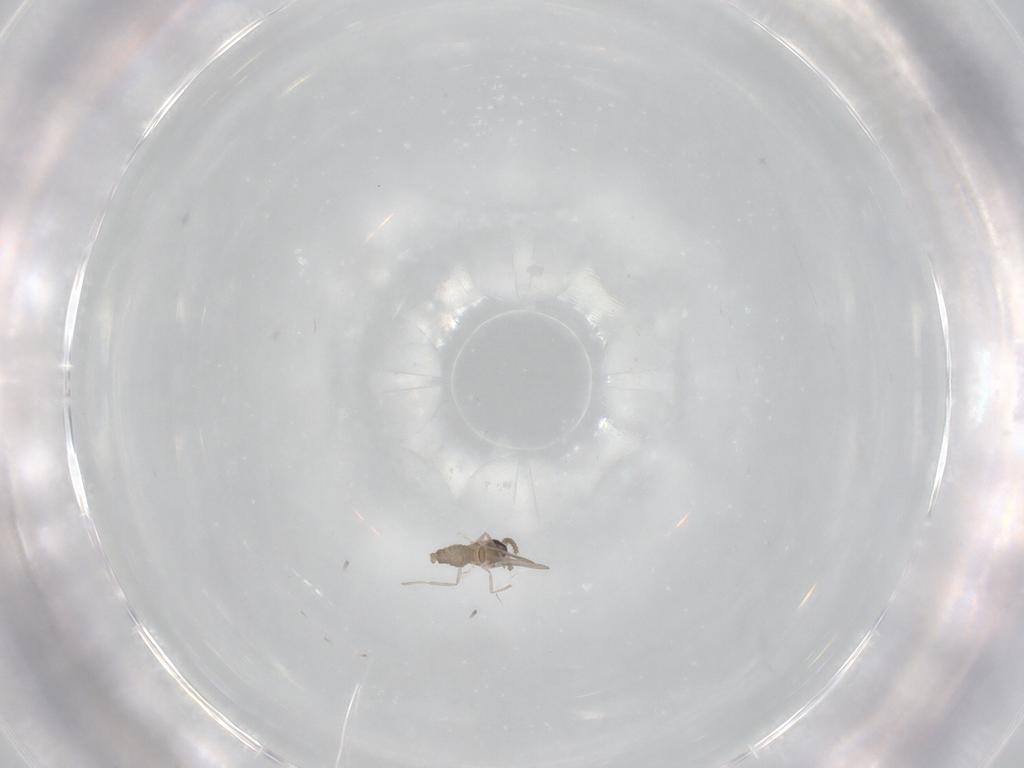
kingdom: Animalia
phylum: Arthropoda
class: Insecta
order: Diptera
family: Cecidomyiidae
